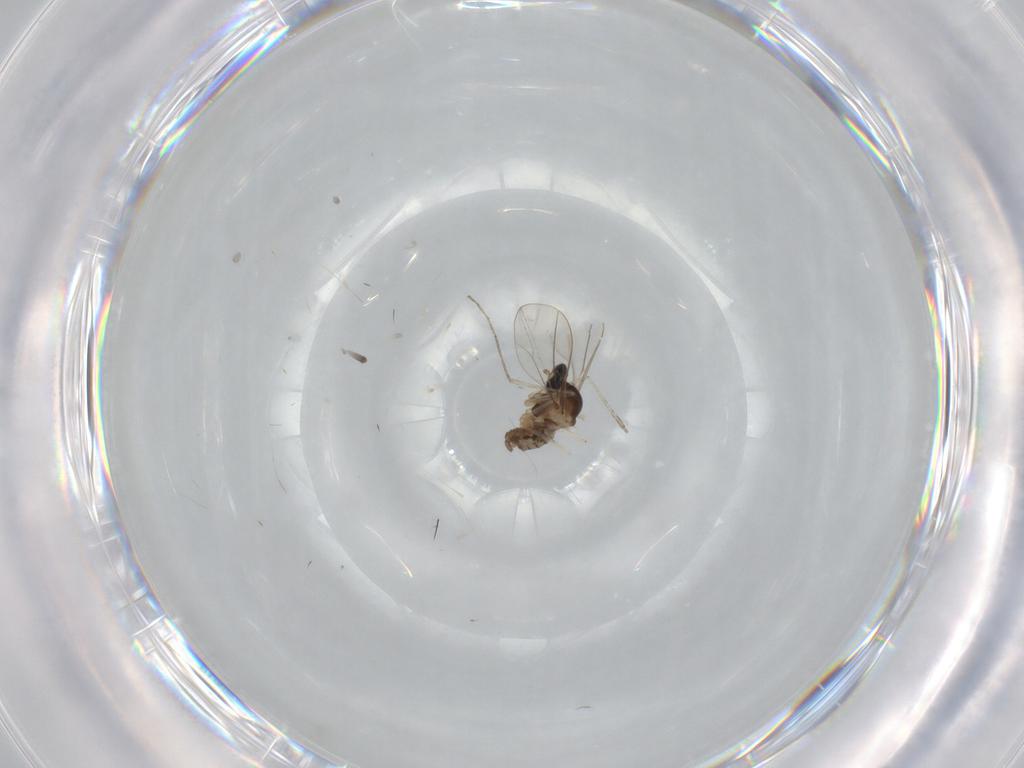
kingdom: Animalia
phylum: Arthropoda
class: Insecta
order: Diptera
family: Cecidomyiidae
